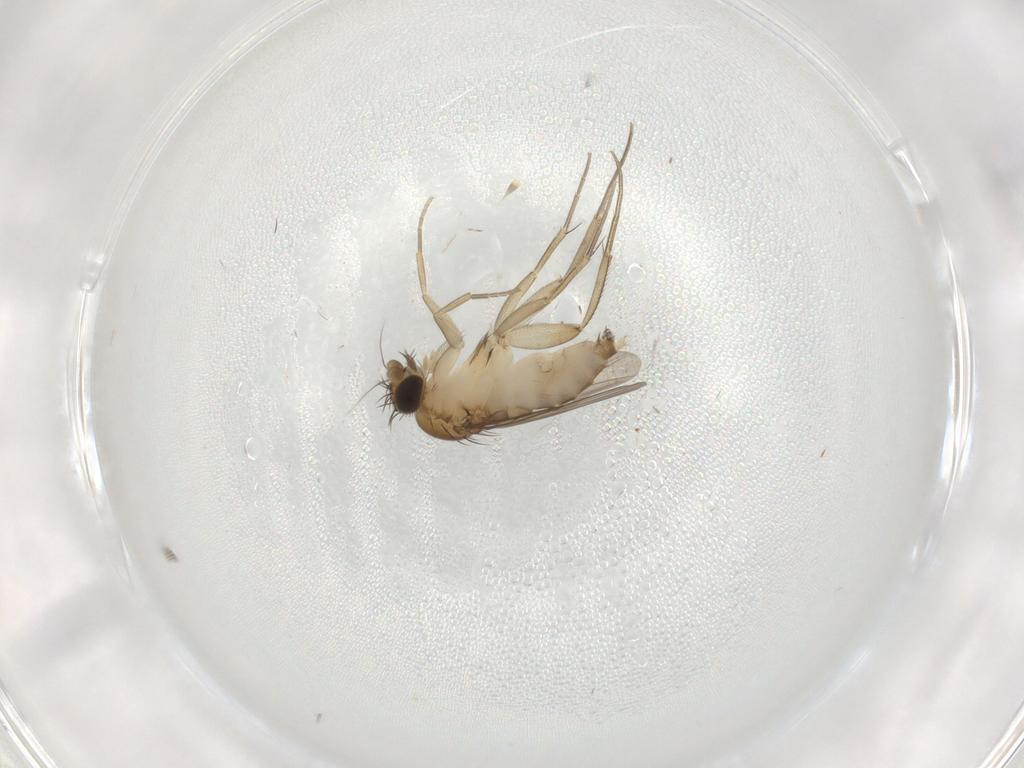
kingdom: Animalia
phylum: Arthropoda
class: Insecta
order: Diptera
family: Phoridae
